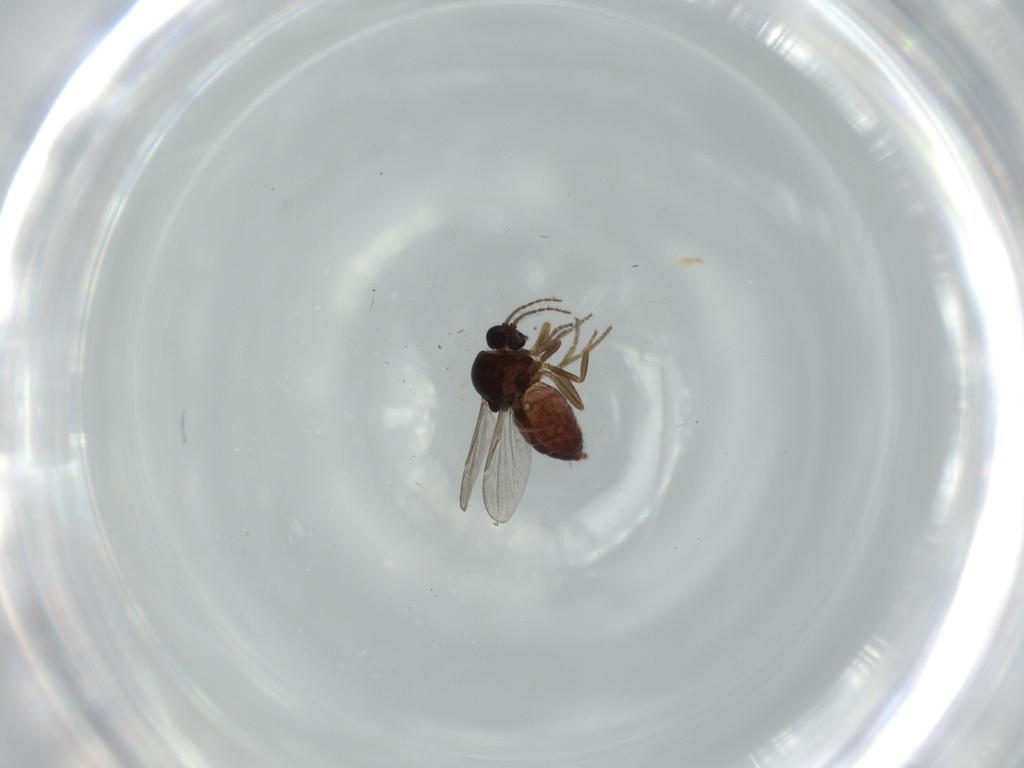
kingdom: Animalia
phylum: Arthropoda
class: Insecta
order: Diptera
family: Ceratopogonidae
